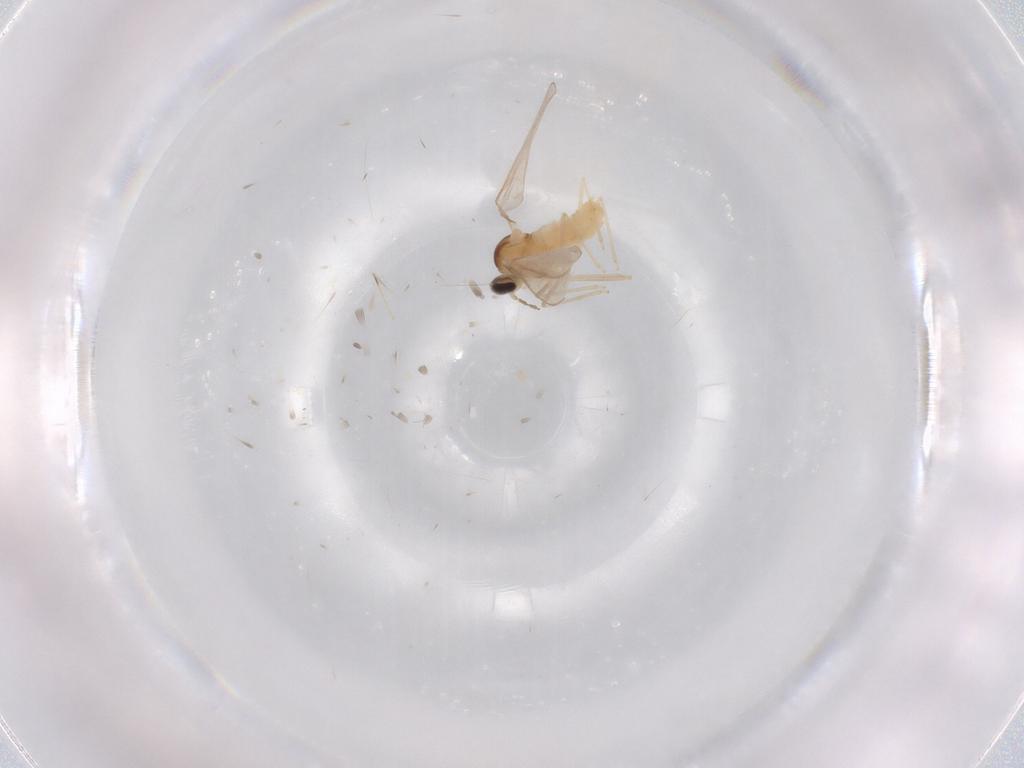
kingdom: Animalia
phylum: Arthropoda
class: Insecta
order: Diptera
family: Cecidomyiidae
